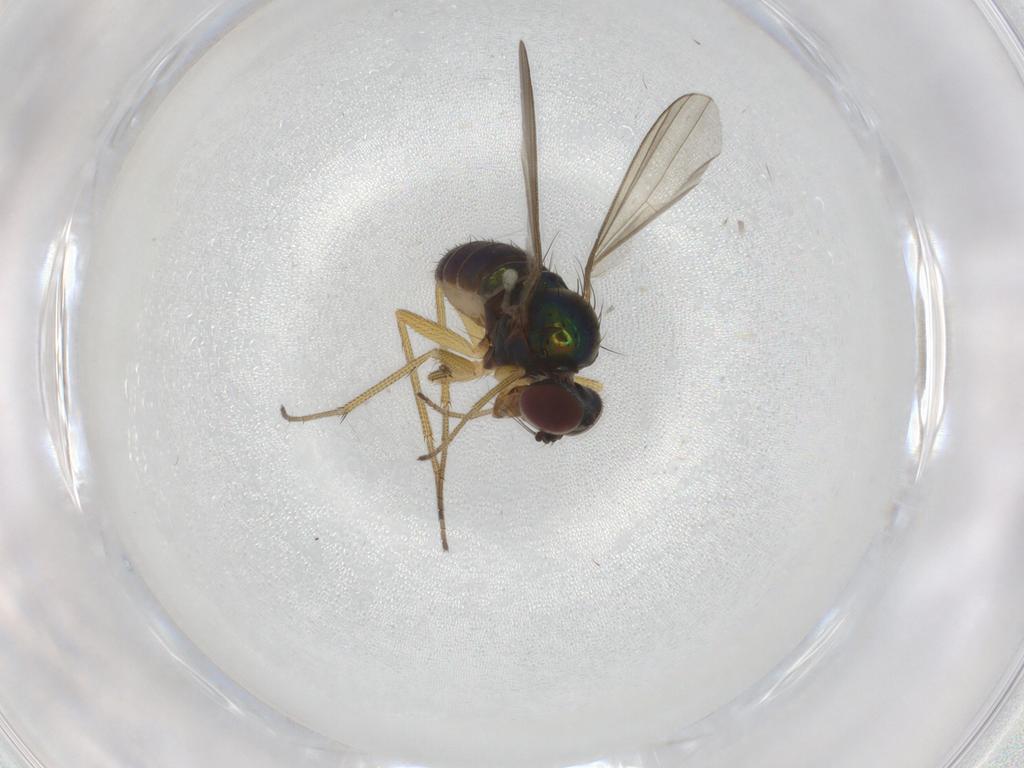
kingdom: Animalia
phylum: Arthropoda
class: Insecta
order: Diptera
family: Dolichopodidae
